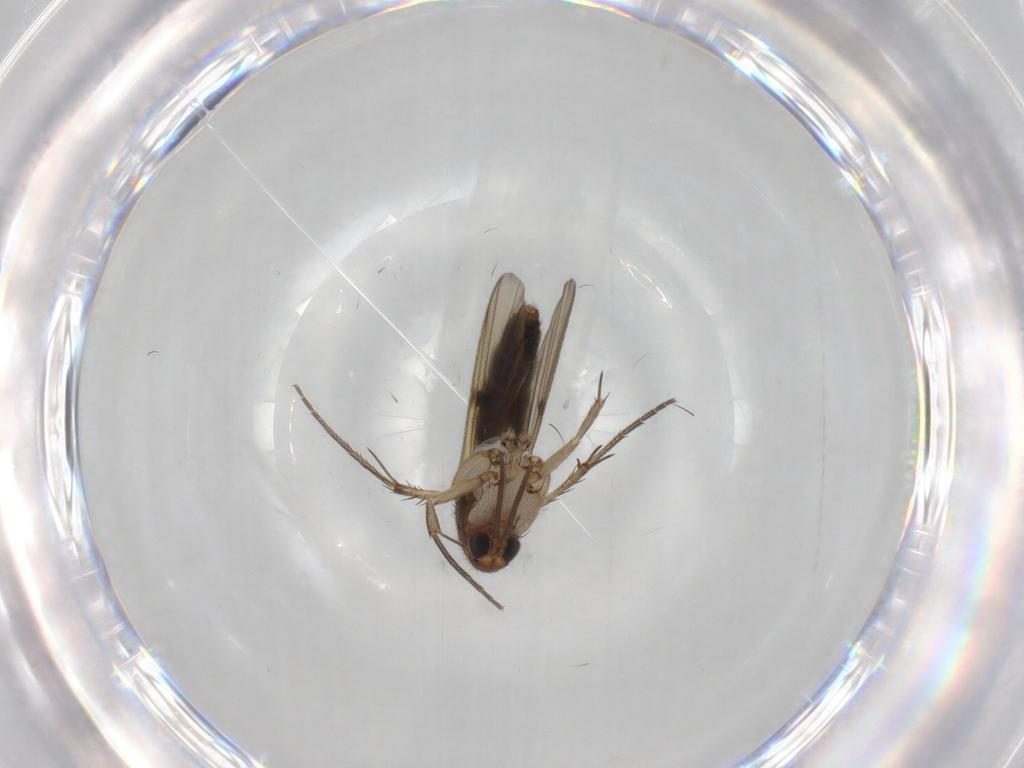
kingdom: Animalia
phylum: Arthropoda
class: Insecta
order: Diptera
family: Mycetophilidae
